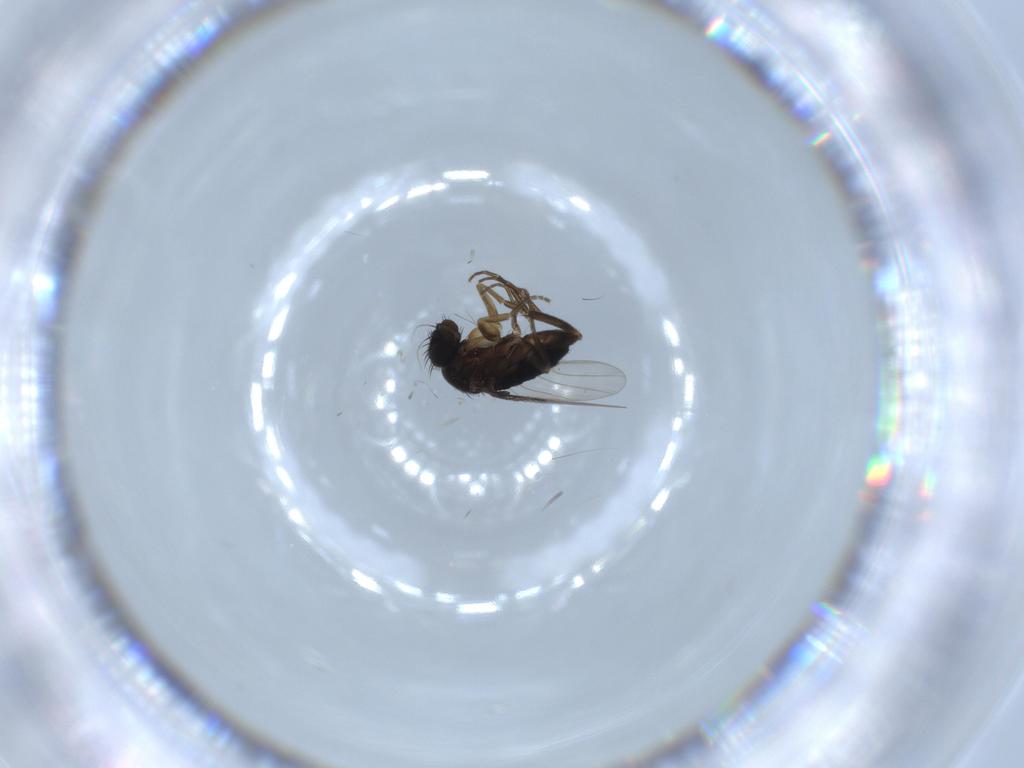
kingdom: Animalia
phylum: Arthropoda
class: Insecta
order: Diptera
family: Phoridae
